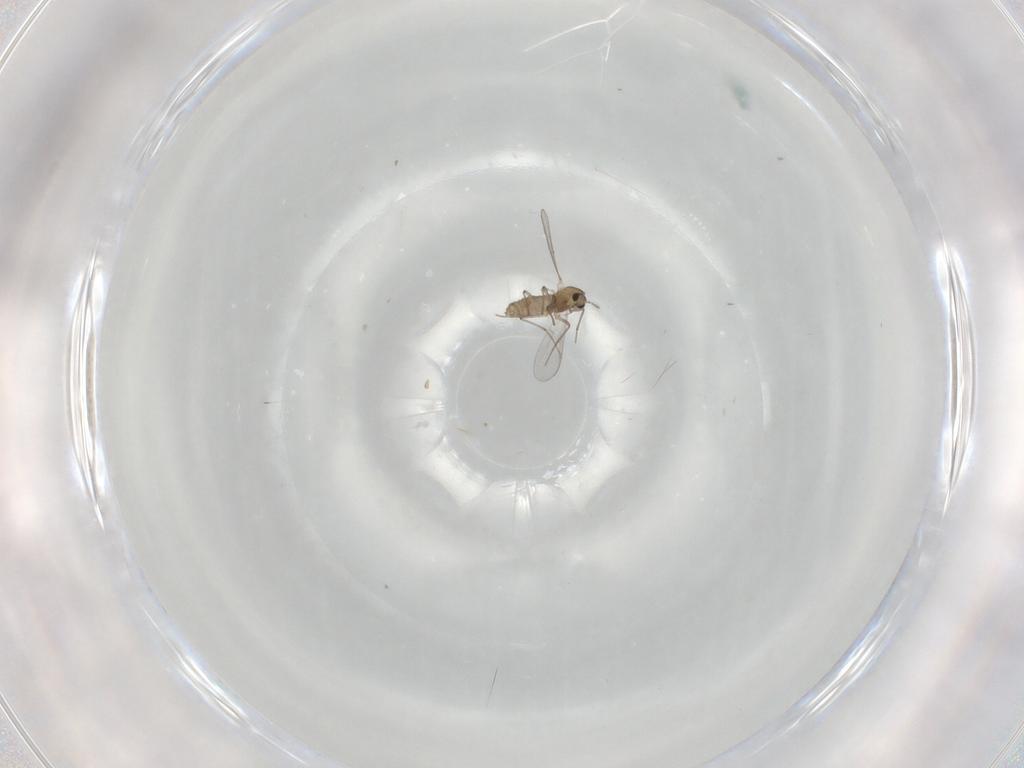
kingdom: Animalia
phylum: Arthropoda
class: Insecta
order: Diptera
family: Chironomidae
